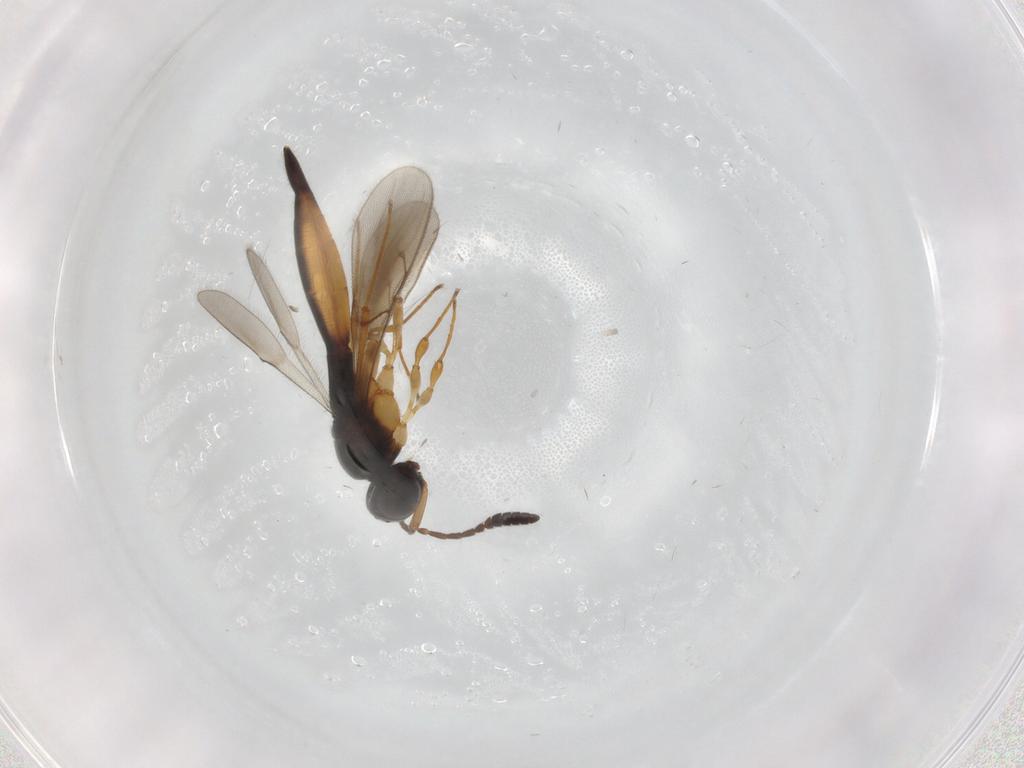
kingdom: Animalia
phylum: Arthropoda
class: Insecta
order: Hymenoptera
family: Scelionidae
